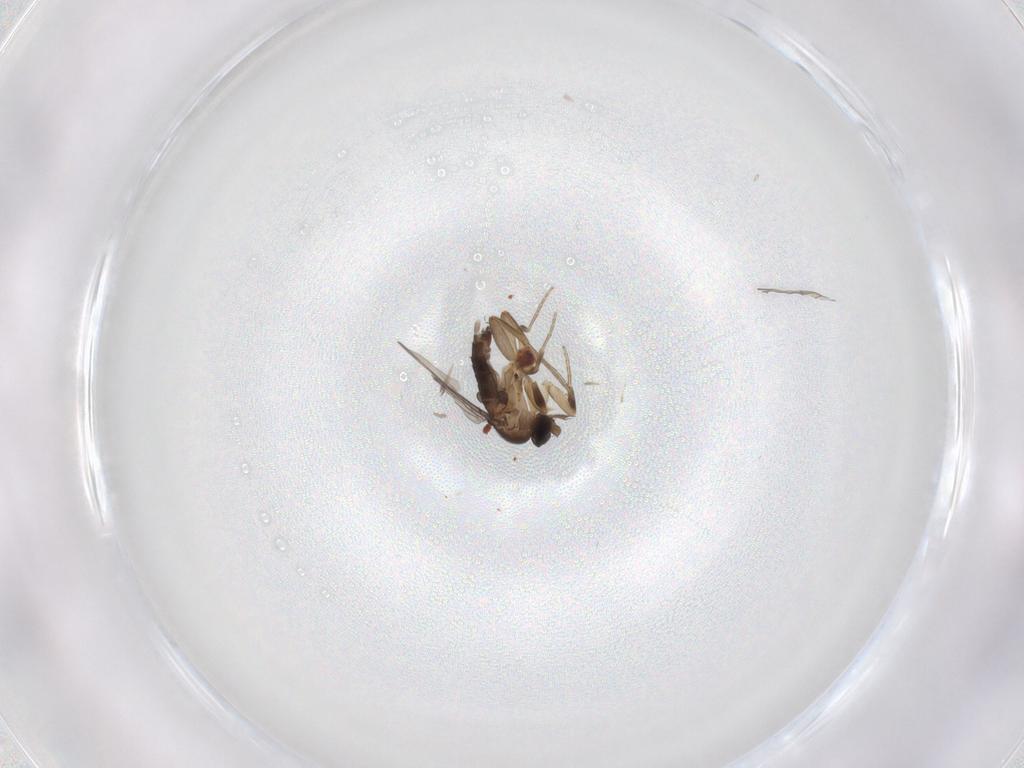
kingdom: Animalia
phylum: Arthropoda
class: Insecta
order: Diptera
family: Phoridae
